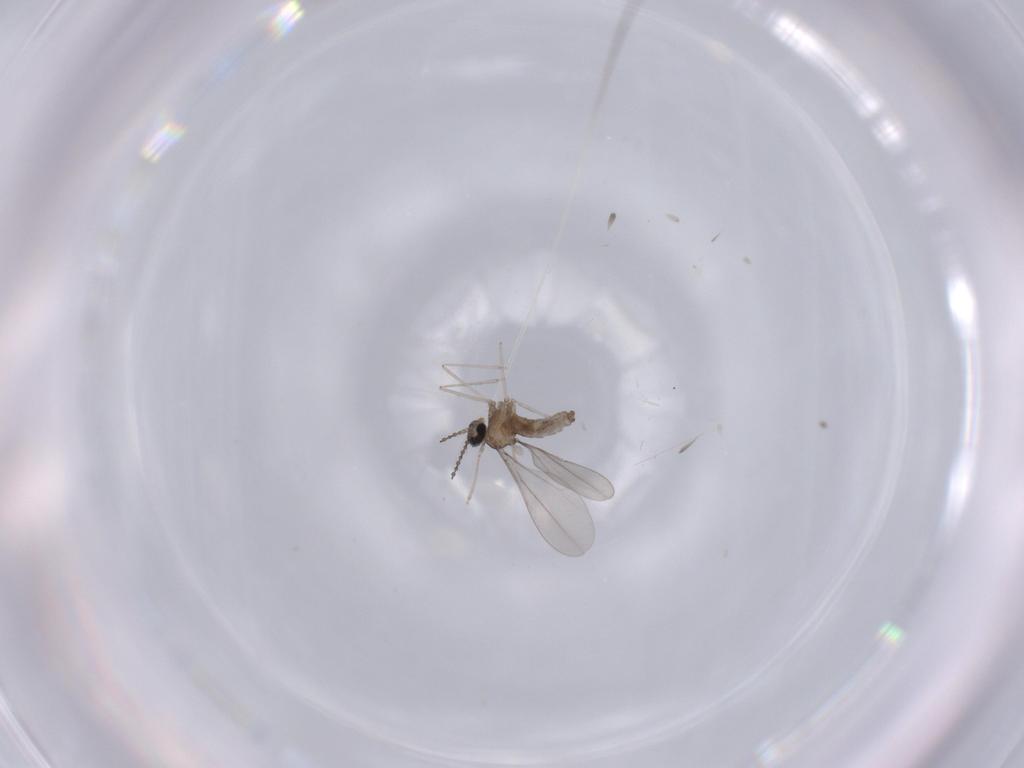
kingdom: Animalia
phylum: Arthropoda
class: Insecta
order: Diptera
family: Cecidomyiidae
